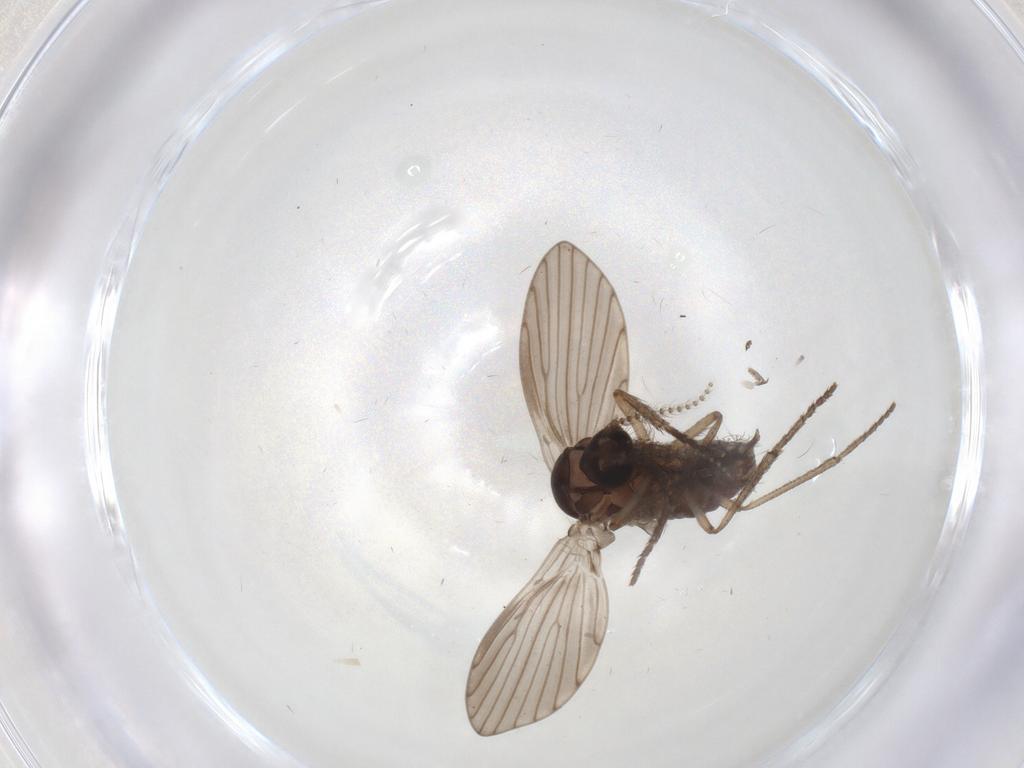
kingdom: Animalia
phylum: Arthropoda
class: Insecta
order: Diptera
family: Psychodidae
